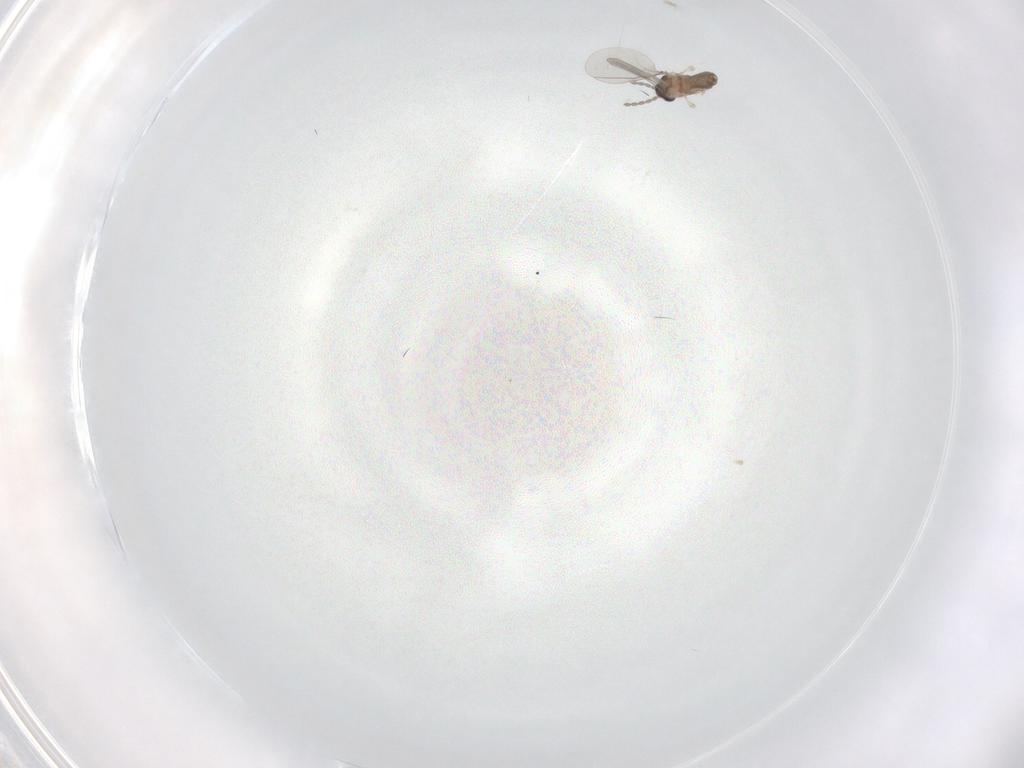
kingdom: Animalia
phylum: Arthropoda
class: Insecta
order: Diptera
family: Cecidomyiidae
